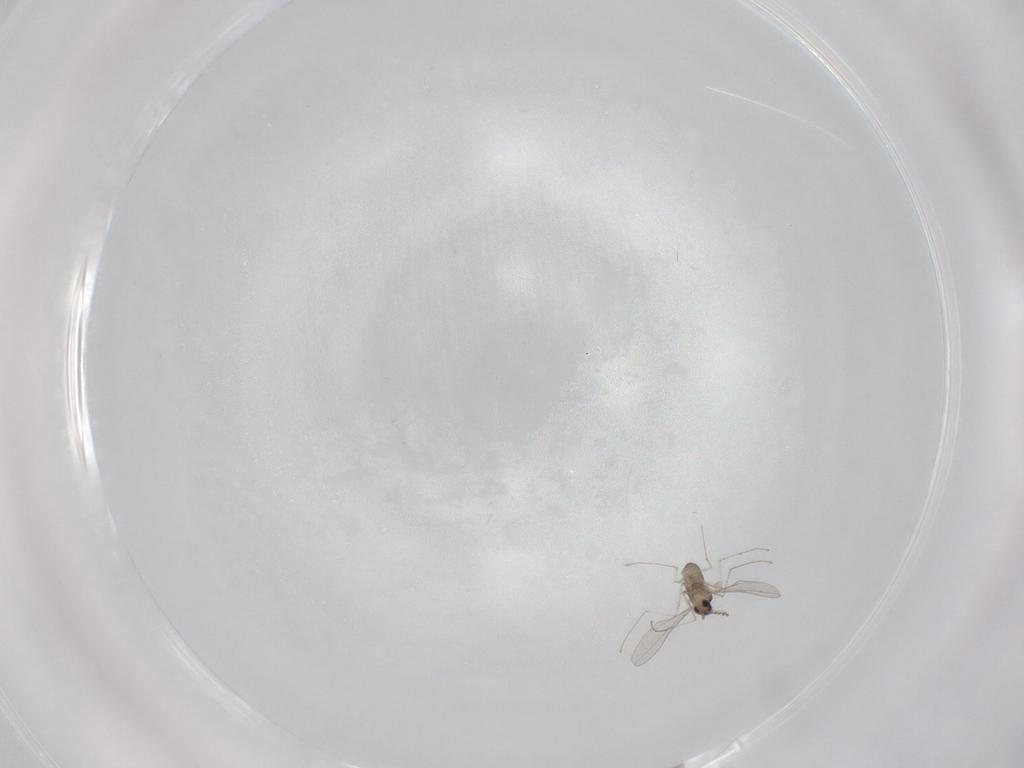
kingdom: Animalia
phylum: Arthropoda
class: Insecta
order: Diptera
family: Cecidomyiidae
